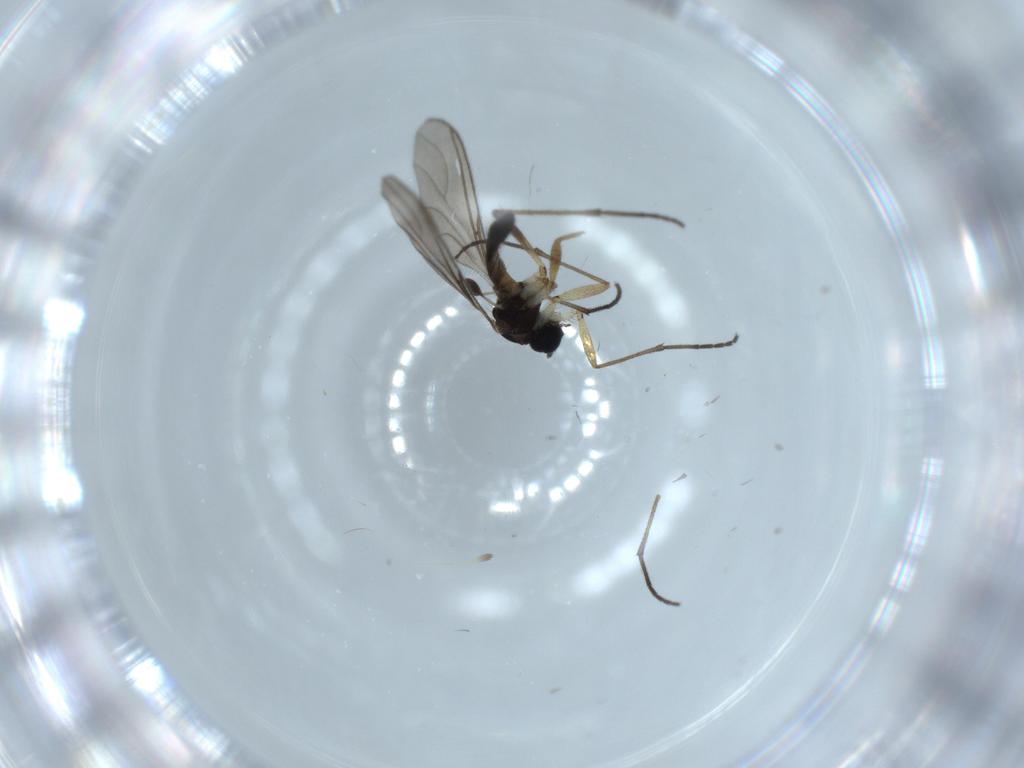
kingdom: Animalia
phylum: Arthropoda
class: Insecta
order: Diptera
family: Sciaridae
